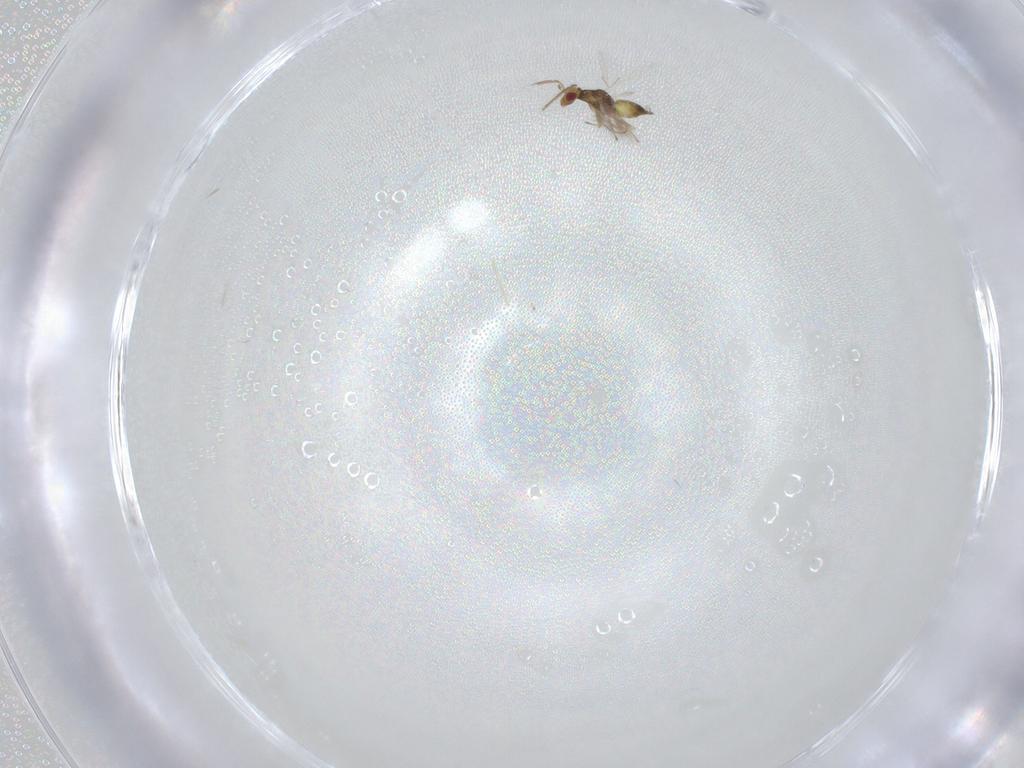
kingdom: Animalia
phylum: Arthropoda
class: Insecta
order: Hymenoptera
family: Eulophidae
